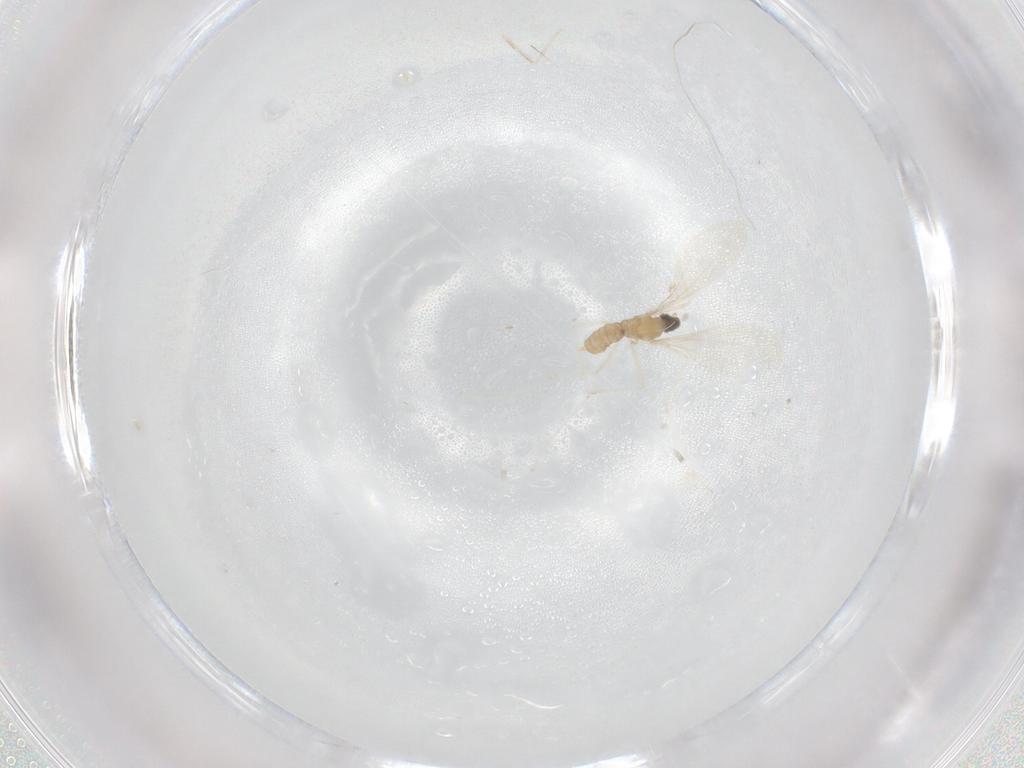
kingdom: Animalia
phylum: Arthropoda
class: Insecta
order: Diptera
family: Cecidomyiidae
